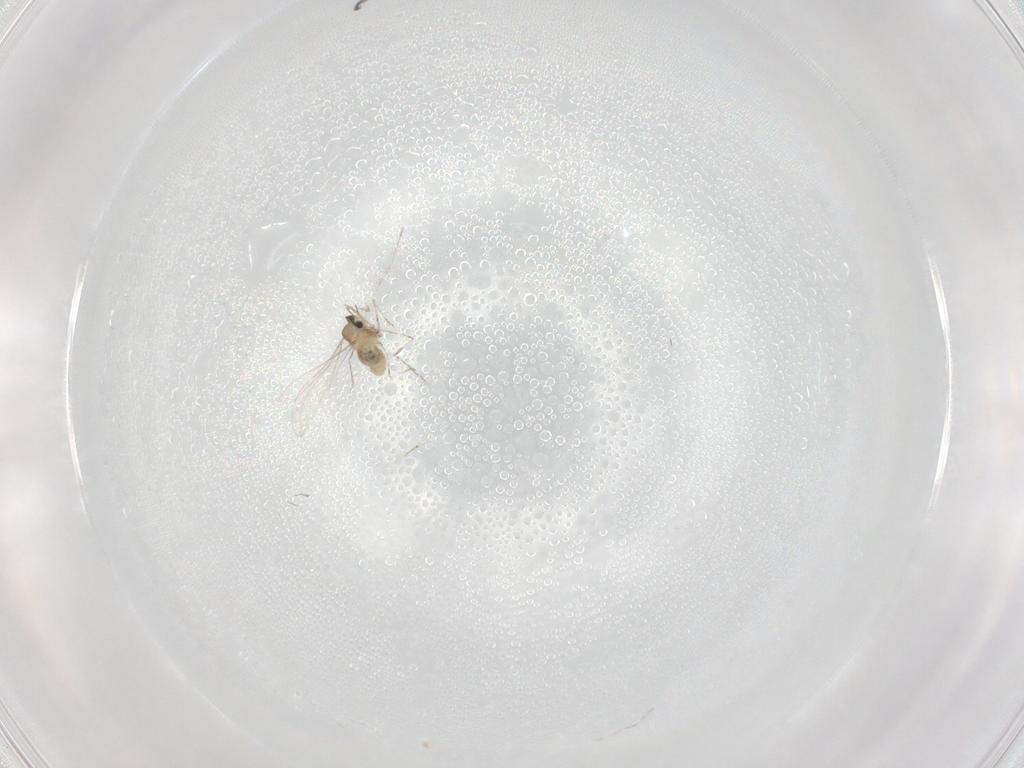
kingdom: Animalia
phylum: Arthropoda
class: Insecta
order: Diptera
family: Cecidomyiidae
